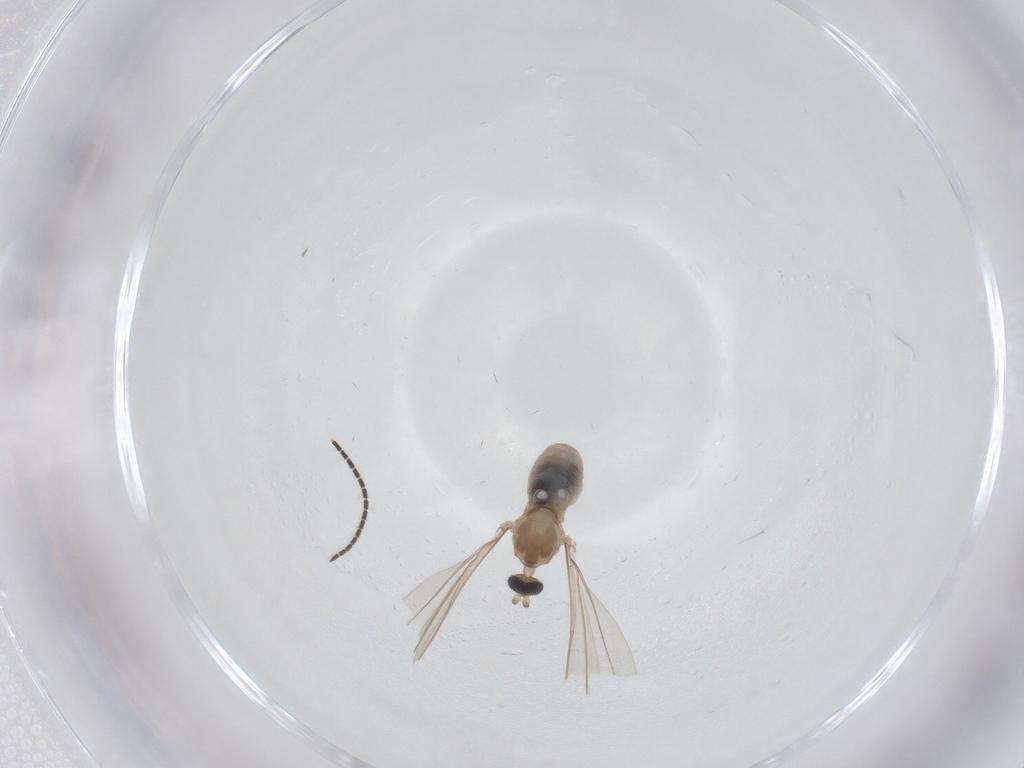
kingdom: Animalia
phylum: Arthropoda
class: Insecta
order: Diptera
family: Cecidomyiidae
